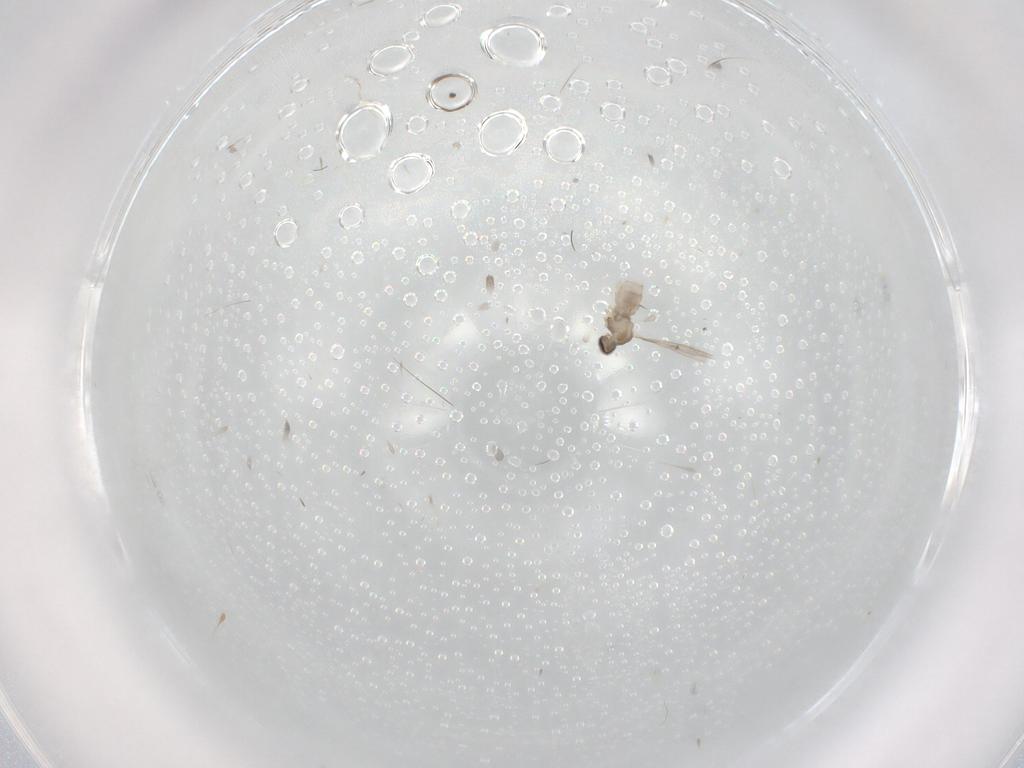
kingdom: Animalia
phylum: Arthropoda
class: Insecta
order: Diptera
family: Cecidomyiidae
